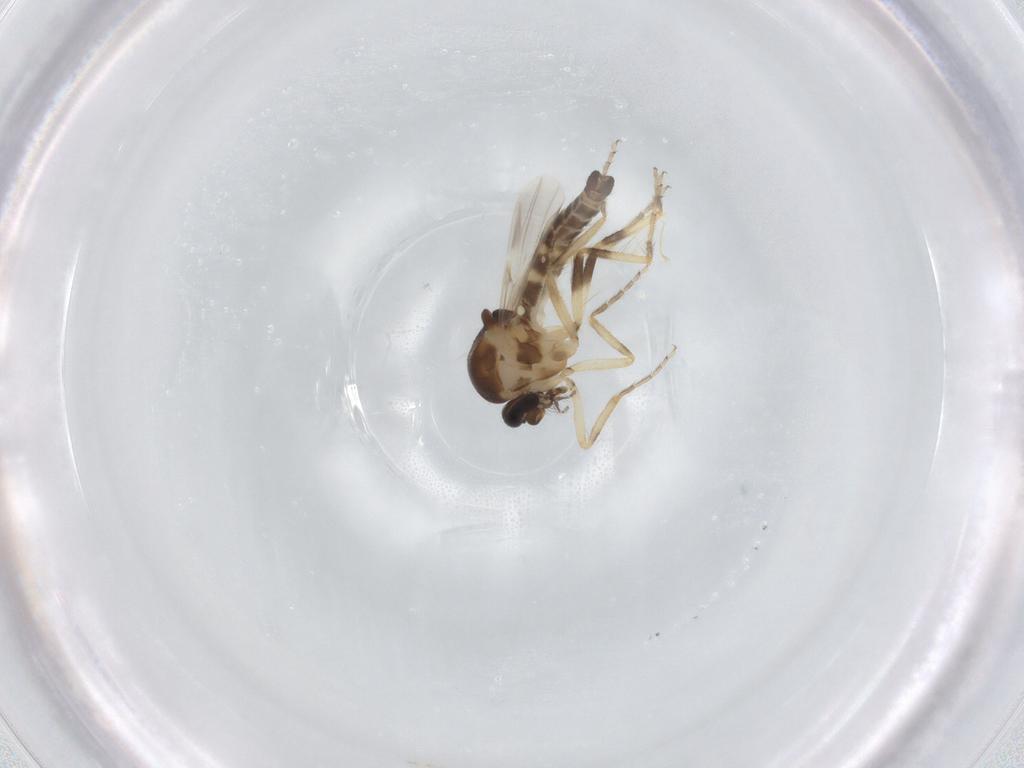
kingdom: Animalia
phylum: Arthropoda
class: Insecta
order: Diptera
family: Ceratopogonidae
